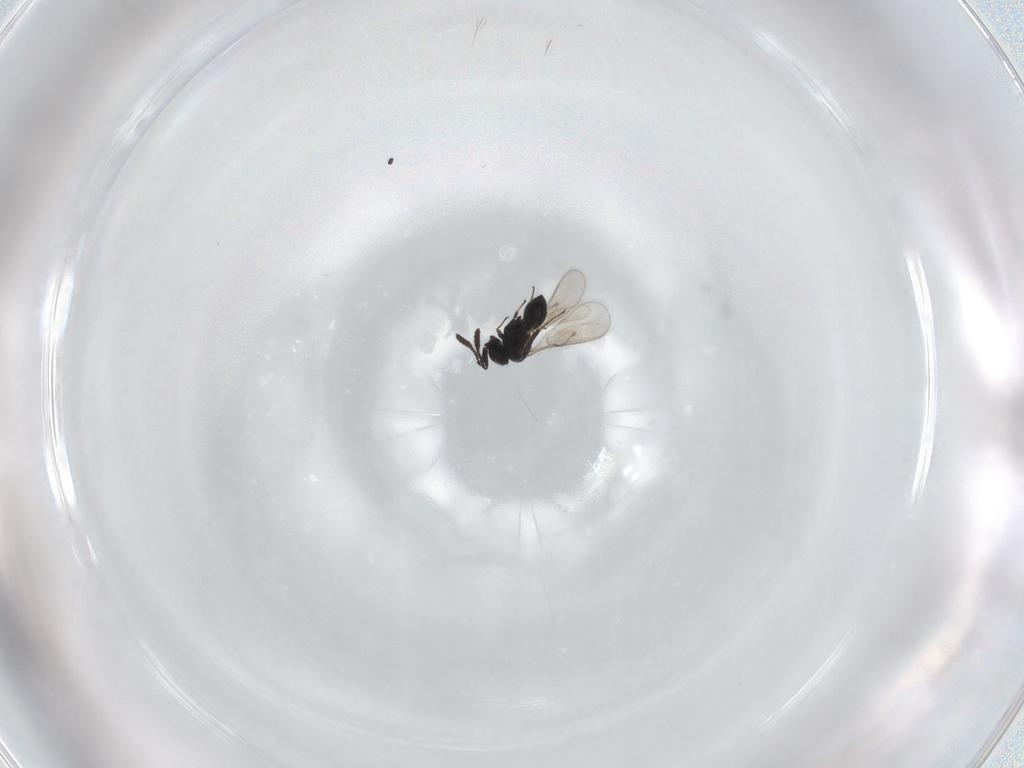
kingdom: Animalia
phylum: Arthropoda
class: Insecta
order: Hymenoptera
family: Scelionidae
